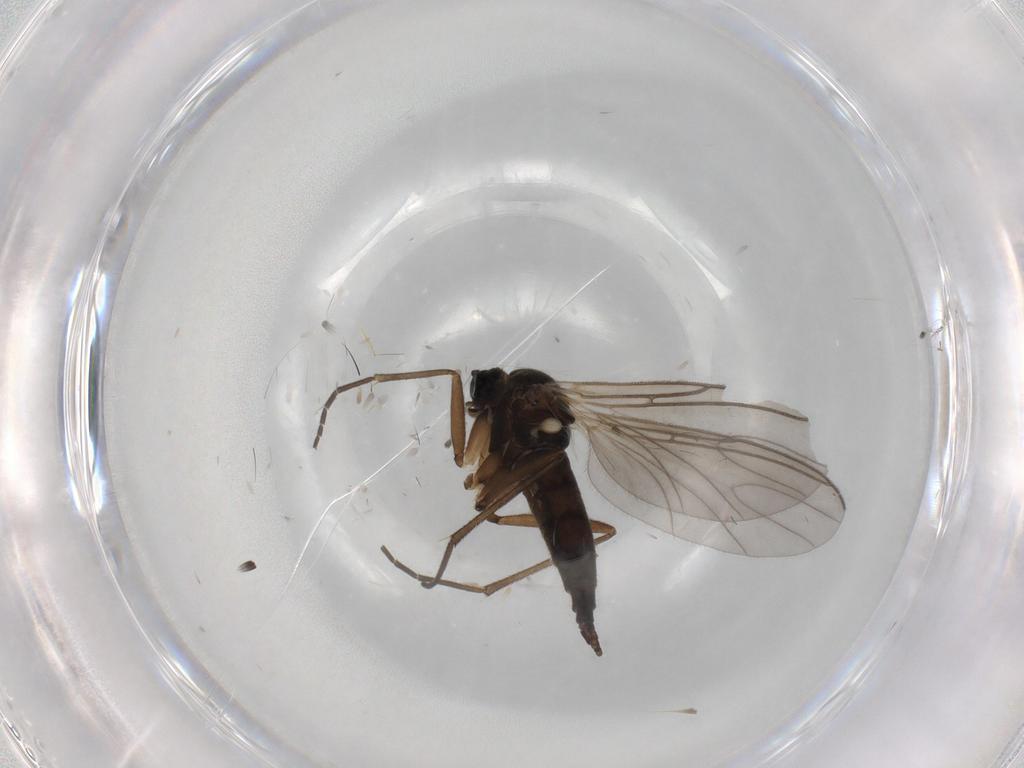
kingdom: Animalia
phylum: Arthropoda
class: Insecta
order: Diptera
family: Sciaridae
